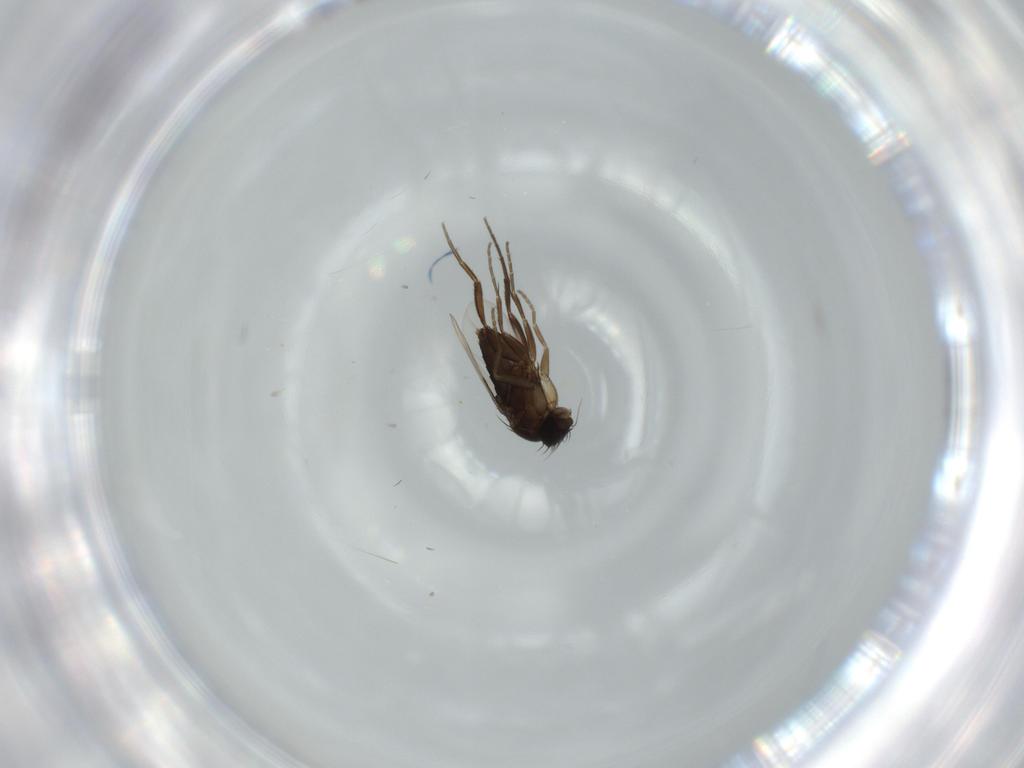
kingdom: Animalia
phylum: Arthropoda
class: Insecta
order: Diptera
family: Phoridae
